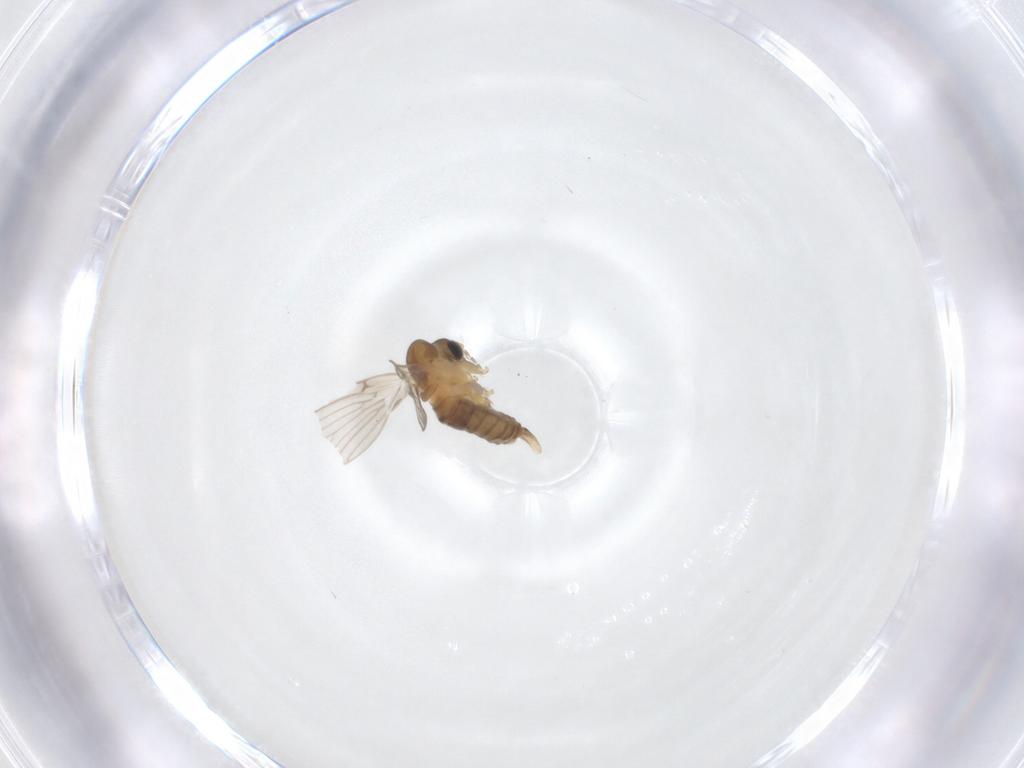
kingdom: Animalia
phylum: Arthropoda
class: Insecta
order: Diptera
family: Psychodidae
